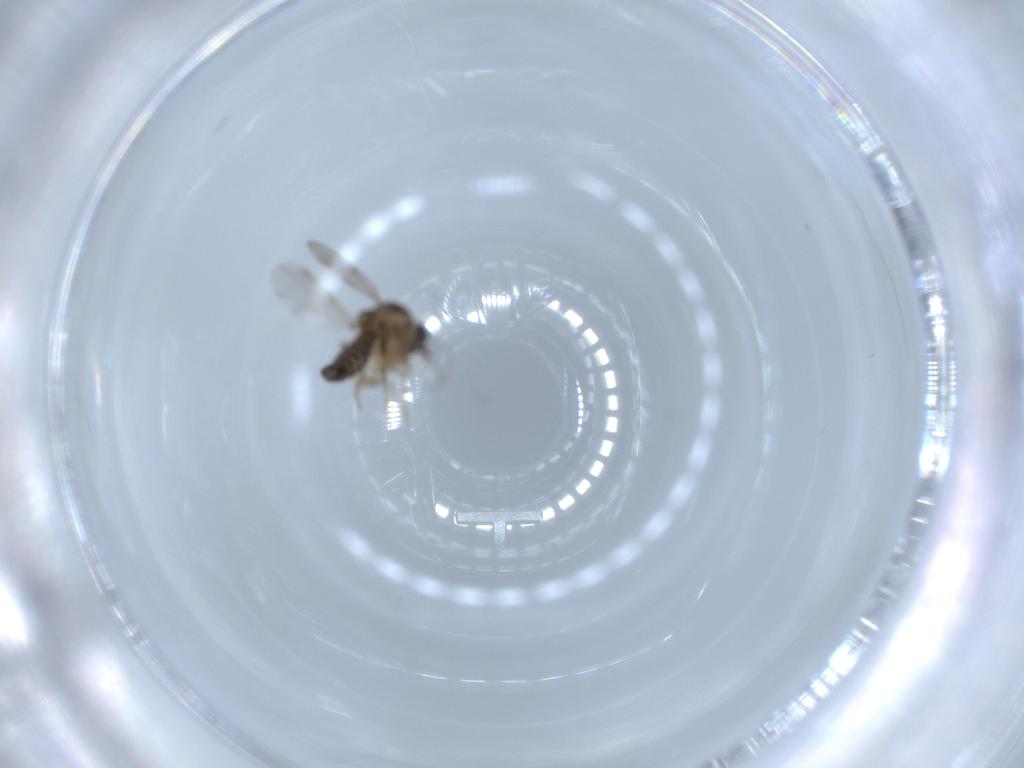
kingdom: Animalia
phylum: Arthropoda
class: Insecta
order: Diptera
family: Ceratopogonidae
